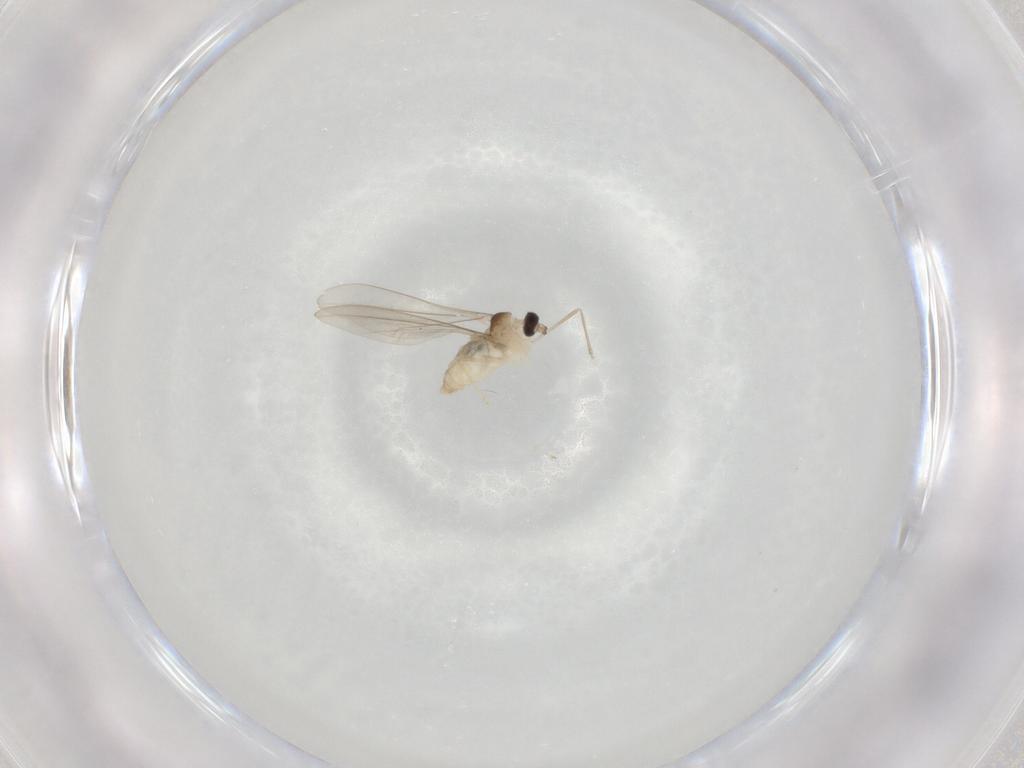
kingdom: Animalia
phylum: Arthropoda
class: Insecta
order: Diptera
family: Cecidomyiidae
